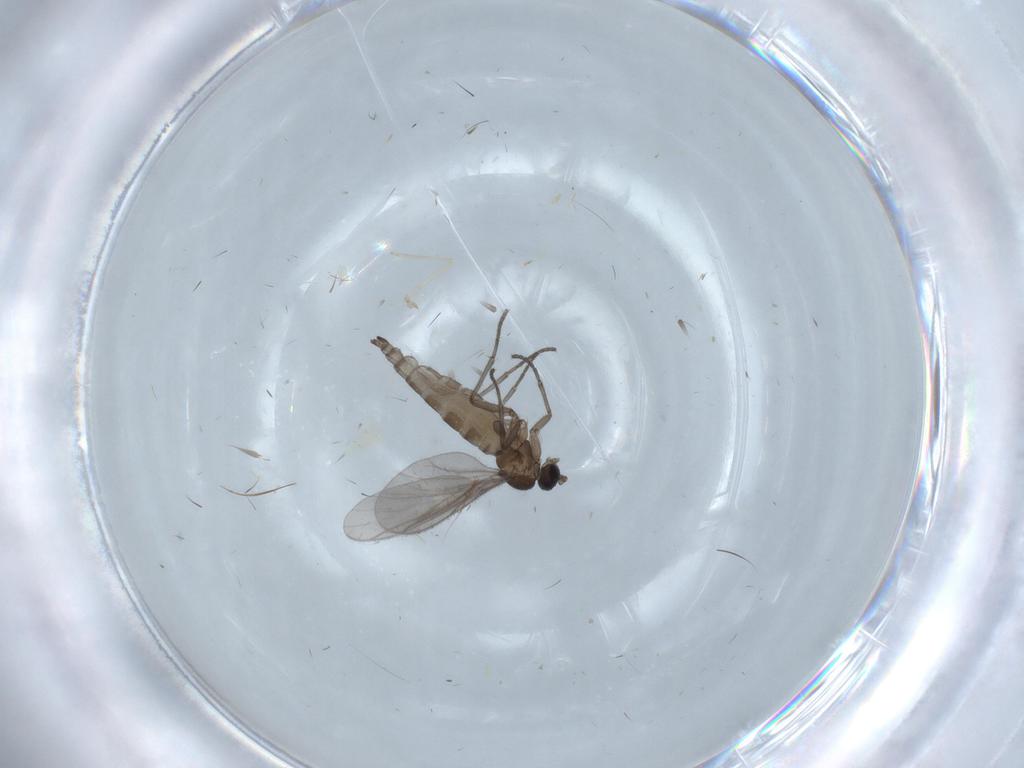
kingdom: Animalia
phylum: Arthropoda
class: Insecta
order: Diptera
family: Sciaridae
